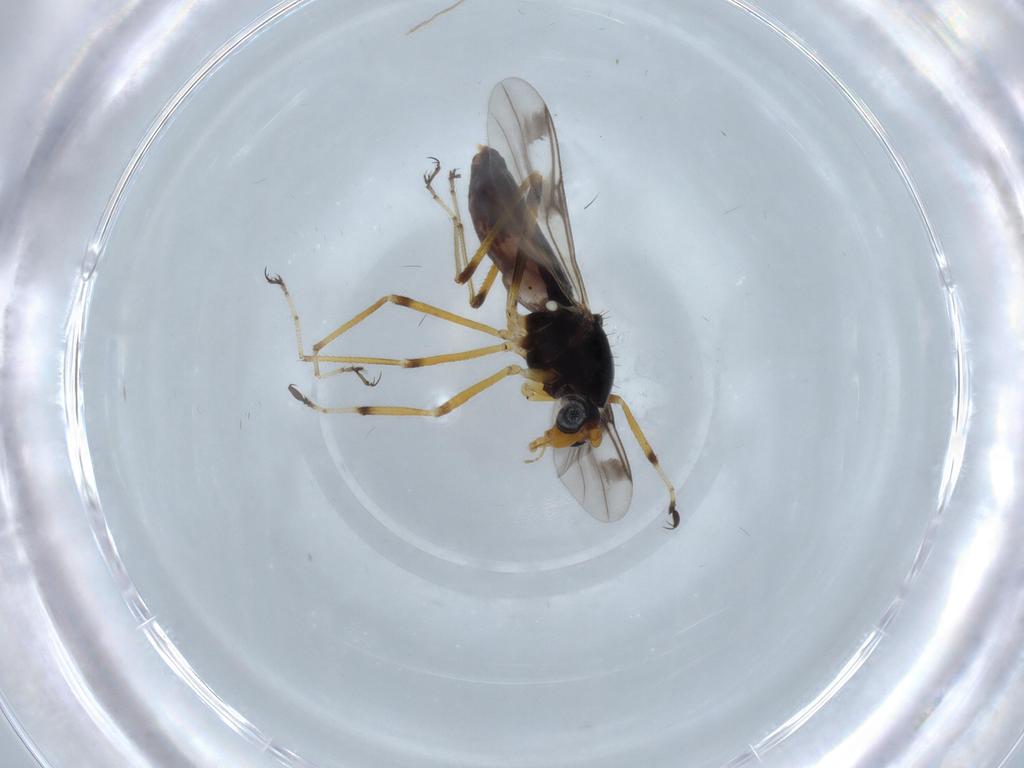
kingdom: Animalia
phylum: Arthropoda
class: Insecta
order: Diptera
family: Ceratopogonidae
